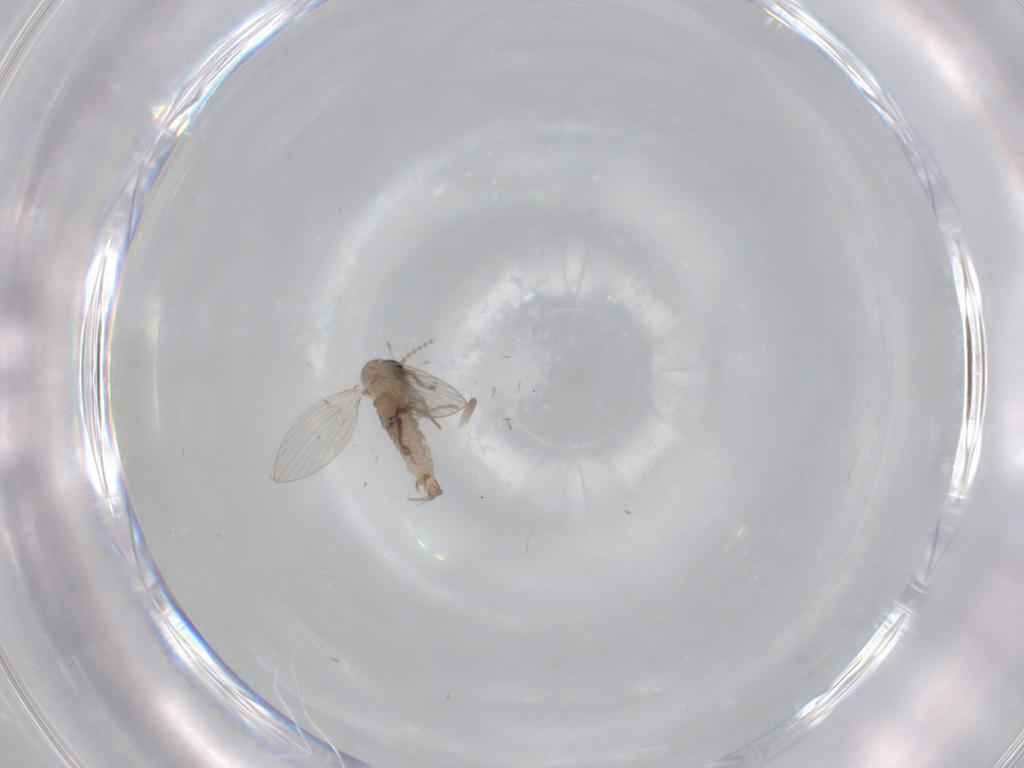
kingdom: Animalia
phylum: Arthropoda
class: Insecta
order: Diptera
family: Psychodidae
